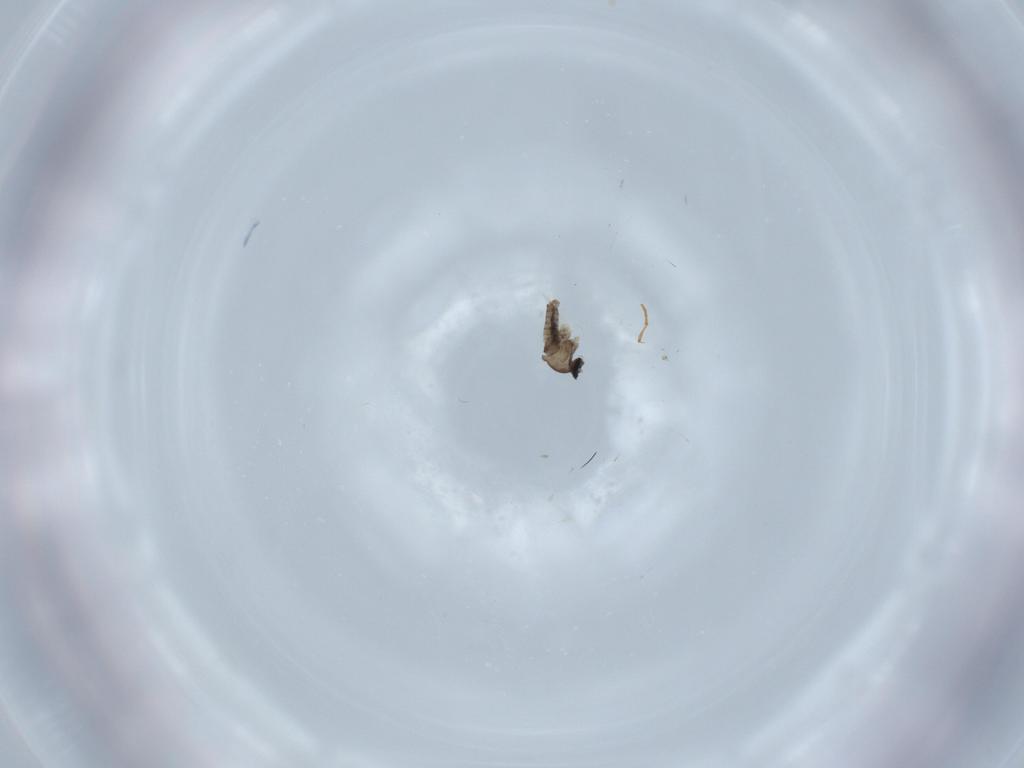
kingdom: Animalia
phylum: Arthropoda
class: Insecta
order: Diptera
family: Cecidomyiidae
